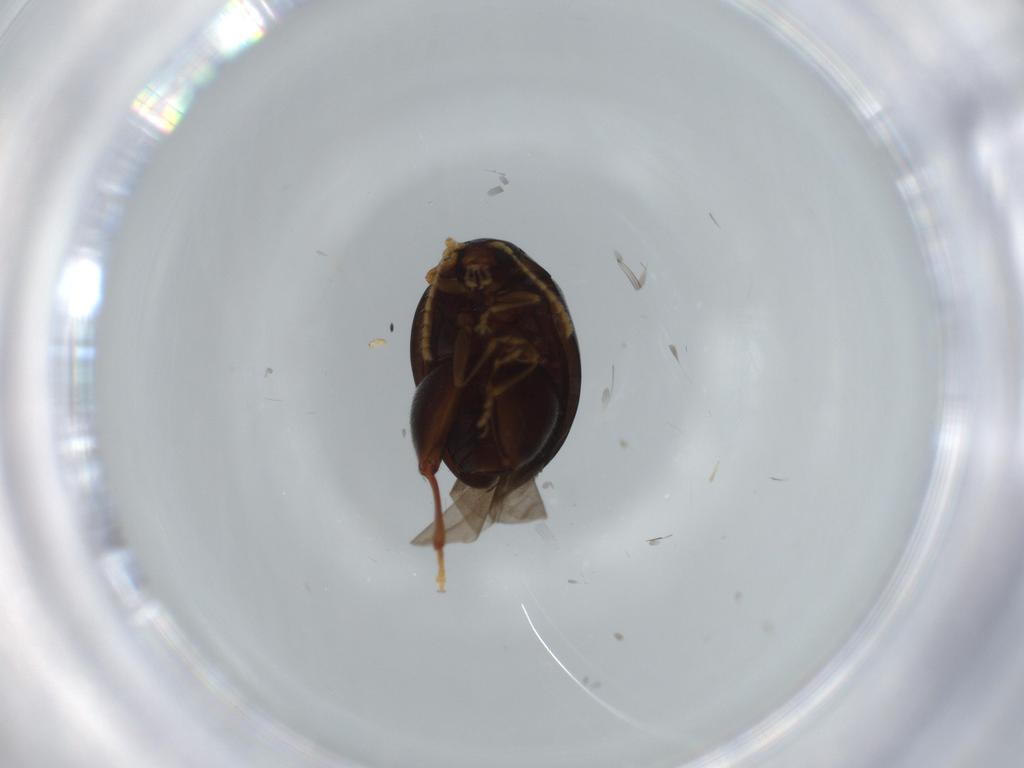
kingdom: Animalia
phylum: Arthropoda
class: Insecta
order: Coleoptera
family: Chrysomelidae
